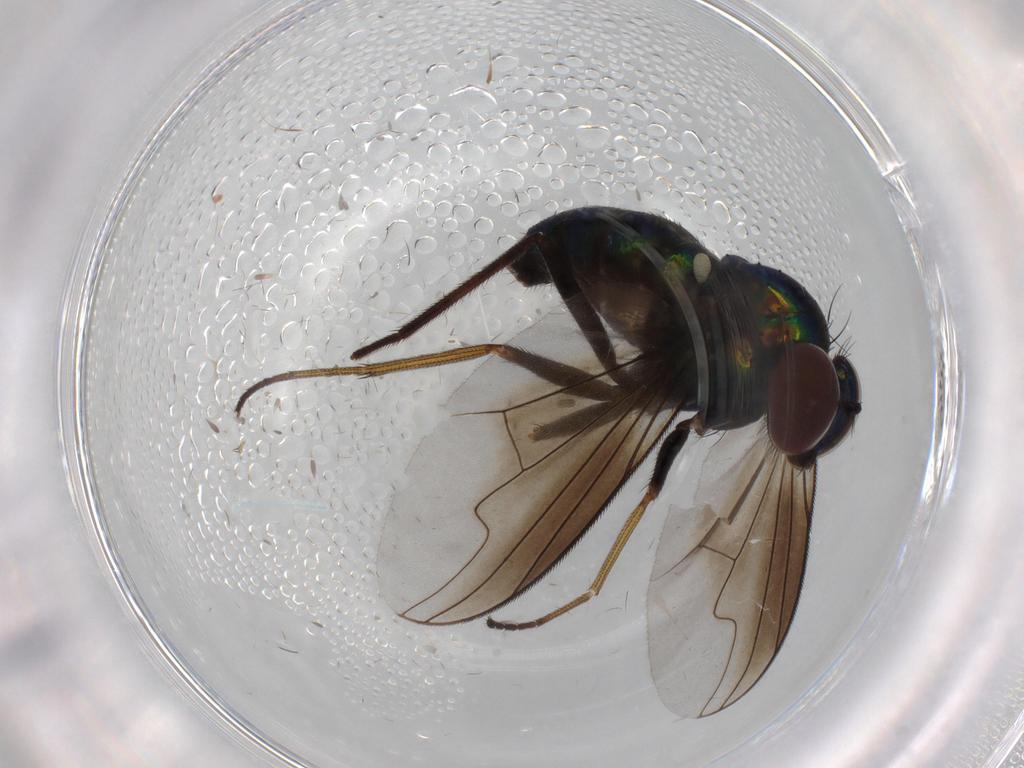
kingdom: Animalia
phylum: Arthropoda
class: Insecta
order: Diptera
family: Dolichopodidae
